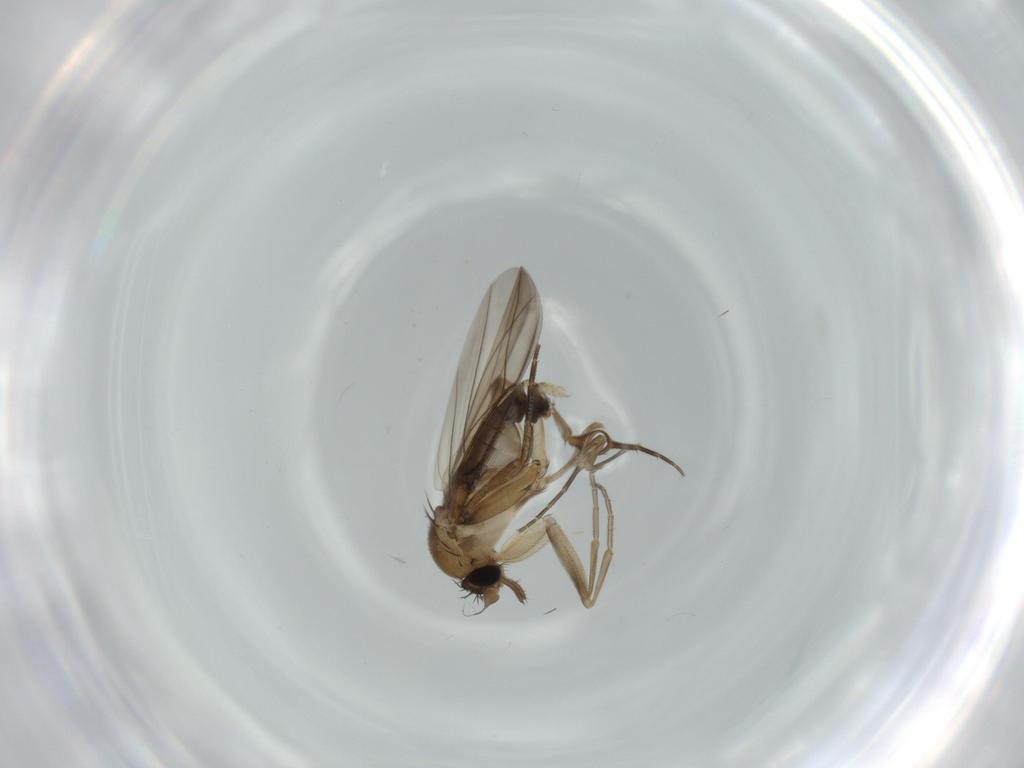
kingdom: Animalia
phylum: Arthropoda
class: Insecta
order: Diptera
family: Phoridae
